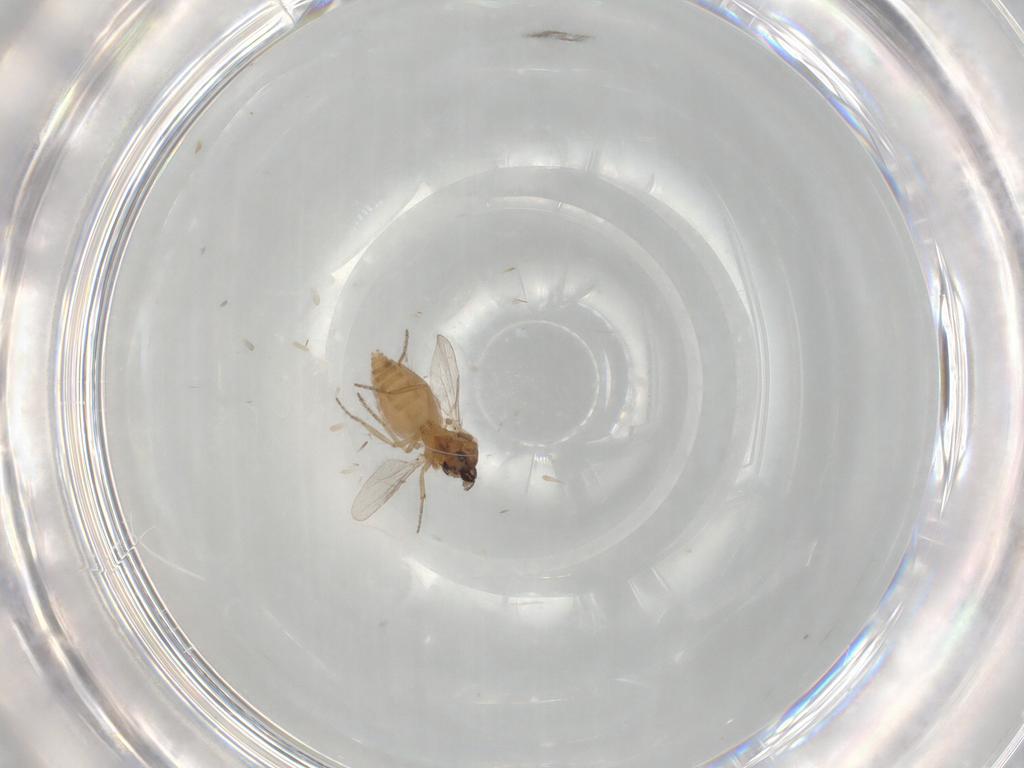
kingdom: Animalia
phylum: Arthropoda
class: Insecta
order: Diptera
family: Ceratopogonidae
